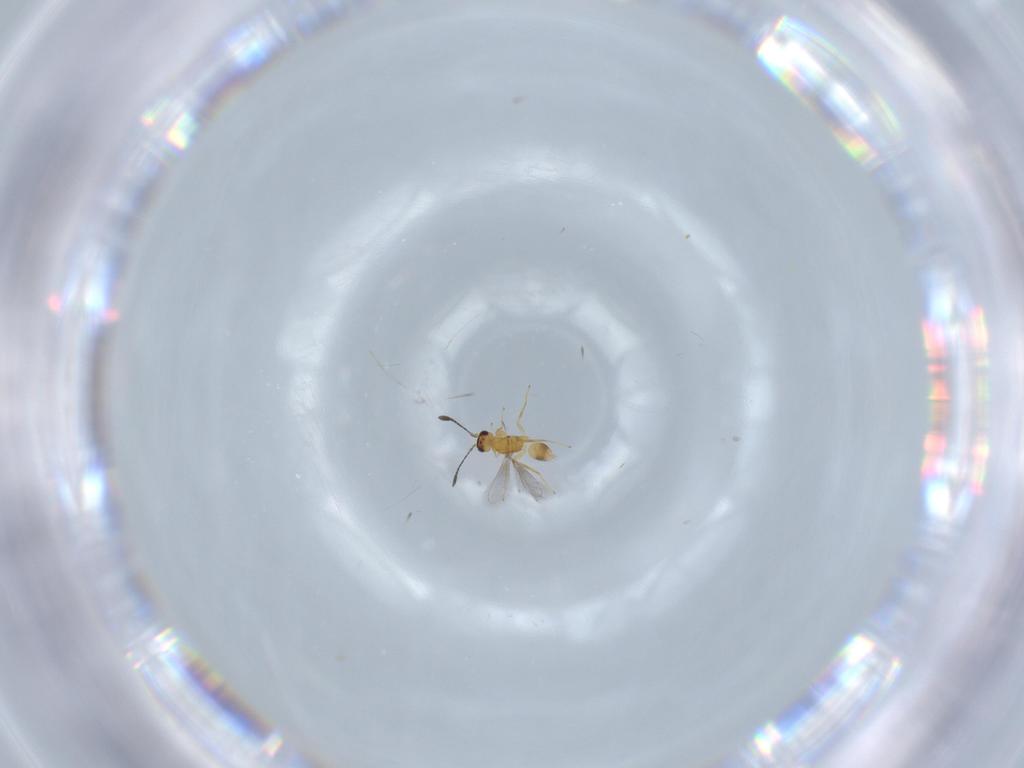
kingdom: Animalia
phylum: Arthropoda
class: Insecta
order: Hymenoptera
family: Mymaridae
